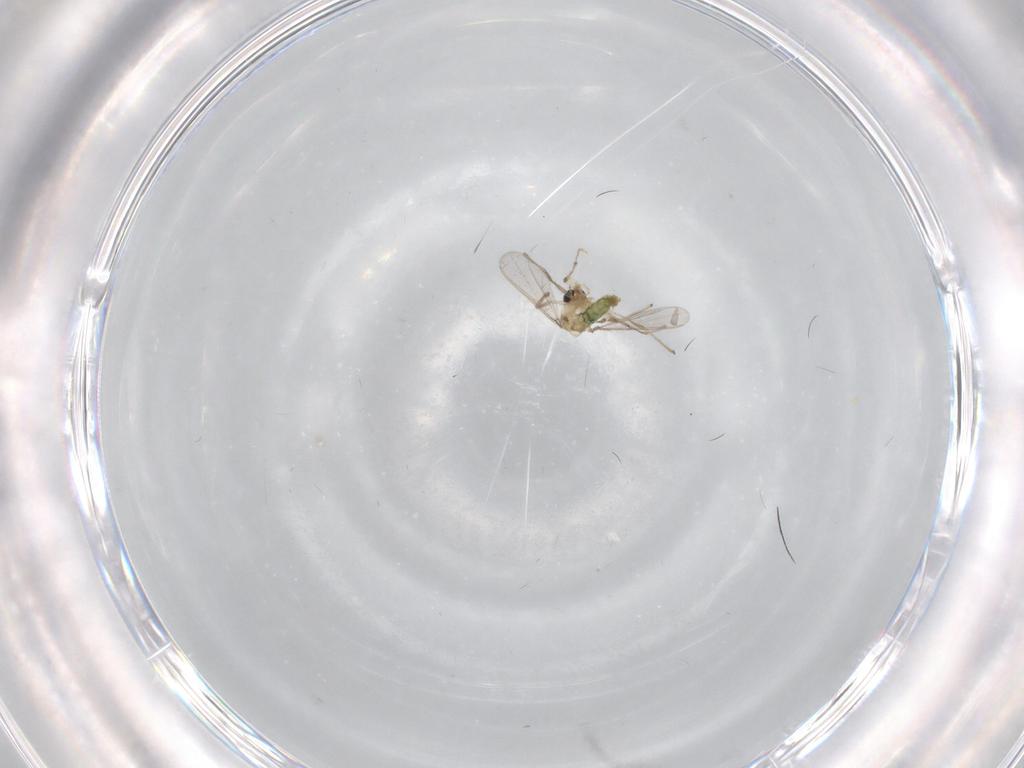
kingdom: Animalia
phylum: Arthropoda
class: Insecta
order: Diptera
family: Chironomidae
